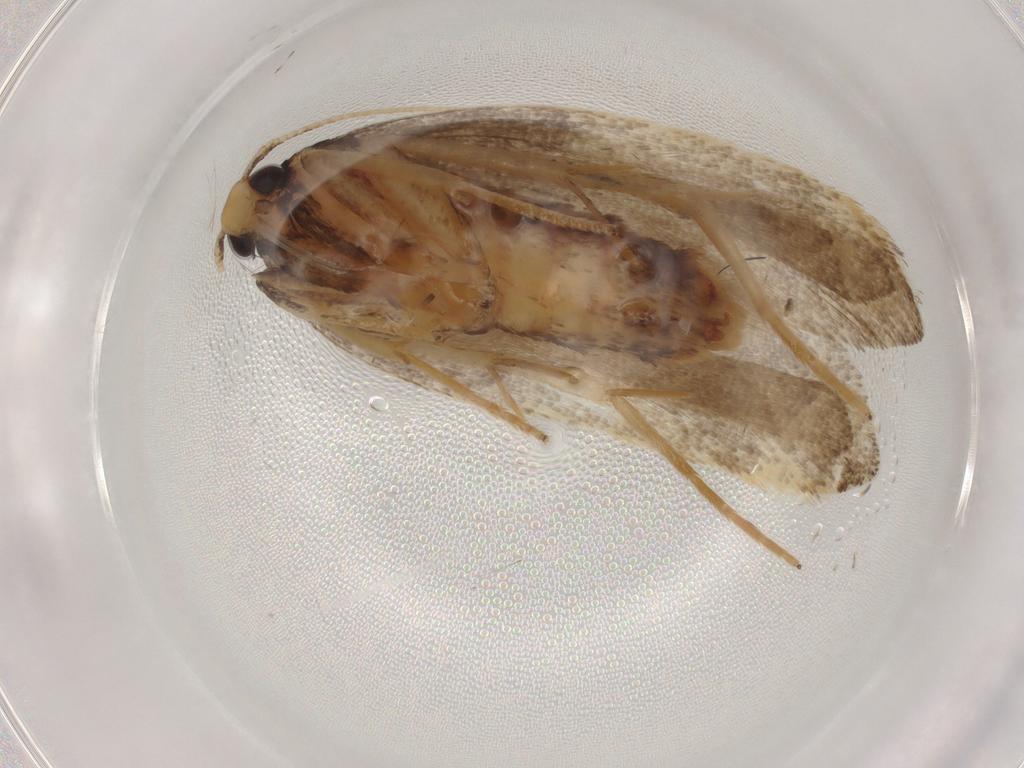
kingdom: Animalia
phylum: Arthropoda
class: Insecta
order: Lepidoptera
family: Lecithoceridae
